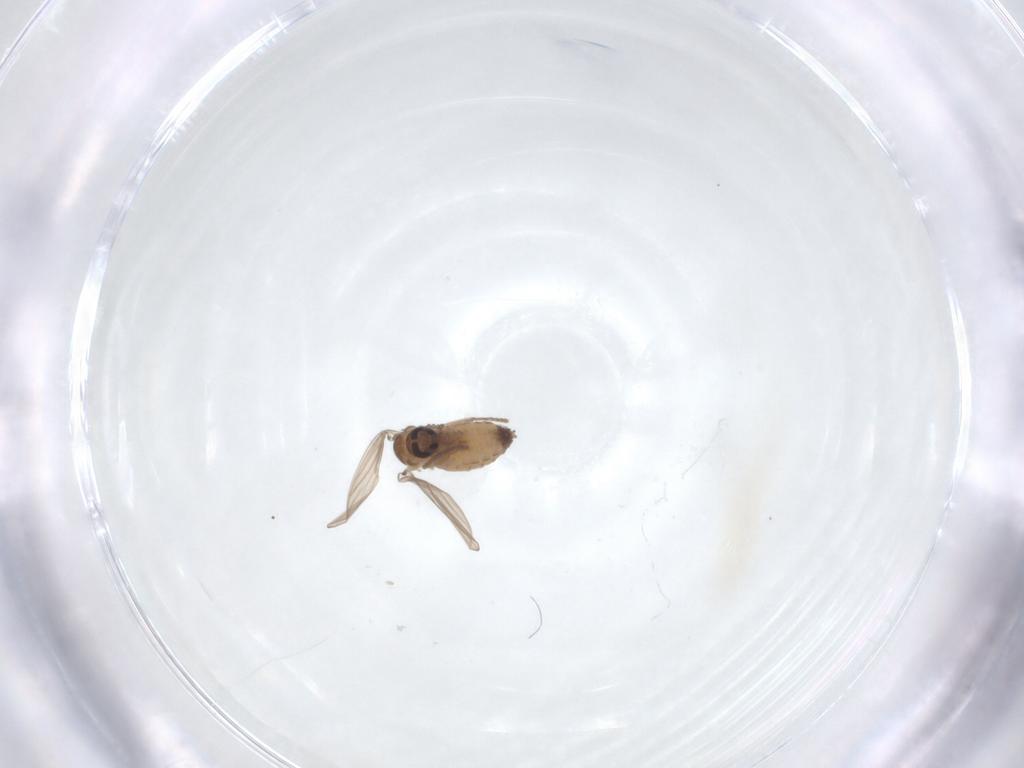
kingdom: Animalia
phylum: Arthropoda
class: Insecta
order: Diptera
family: Psychodidae
